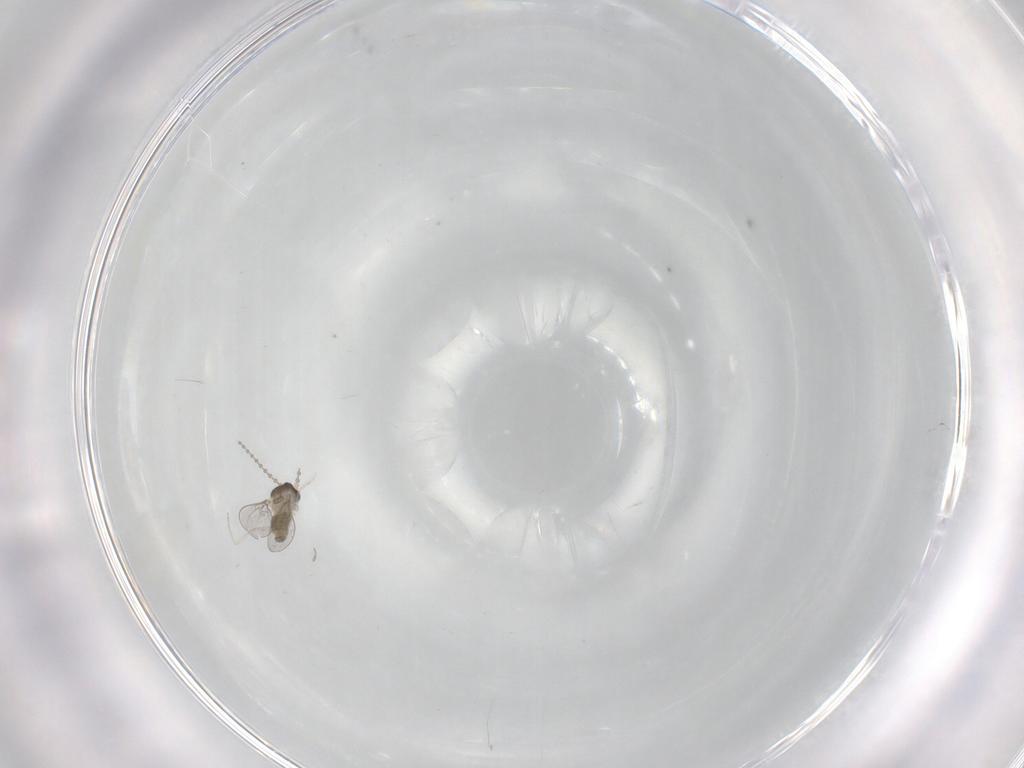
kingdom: Animalia
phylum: Arthropoda
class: Insecta
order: Diptera
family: Cecidomyiidae
